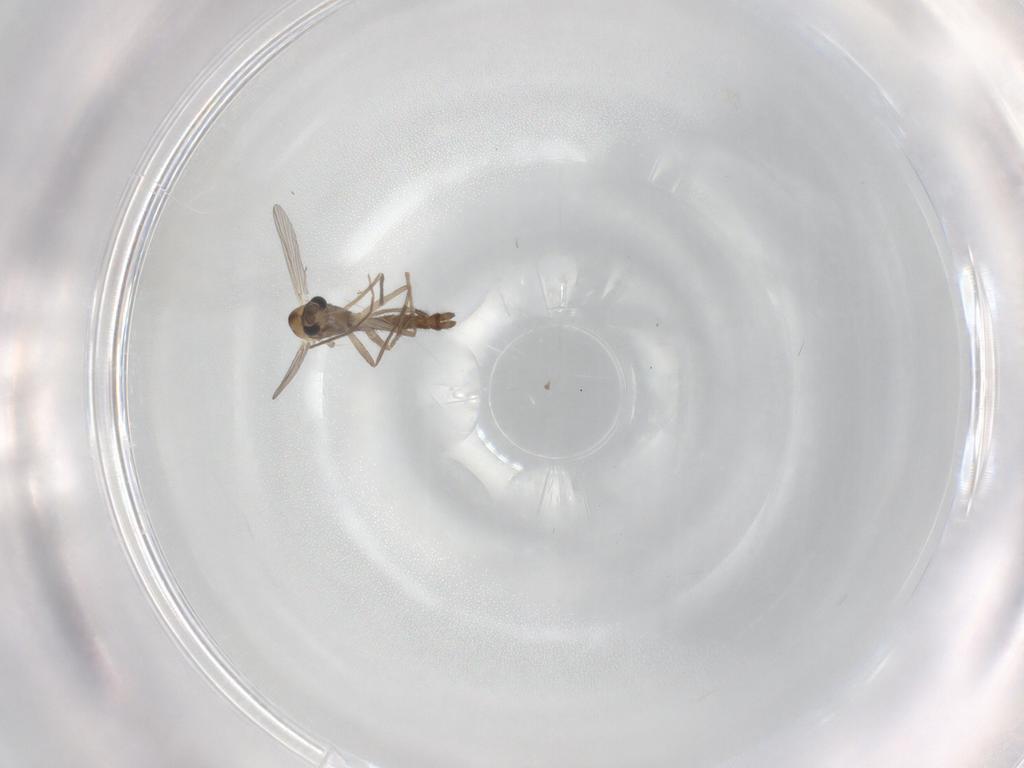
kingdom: Animalia
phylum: Arthropoda
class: Insecta
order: Diptera
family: Chironomidae
